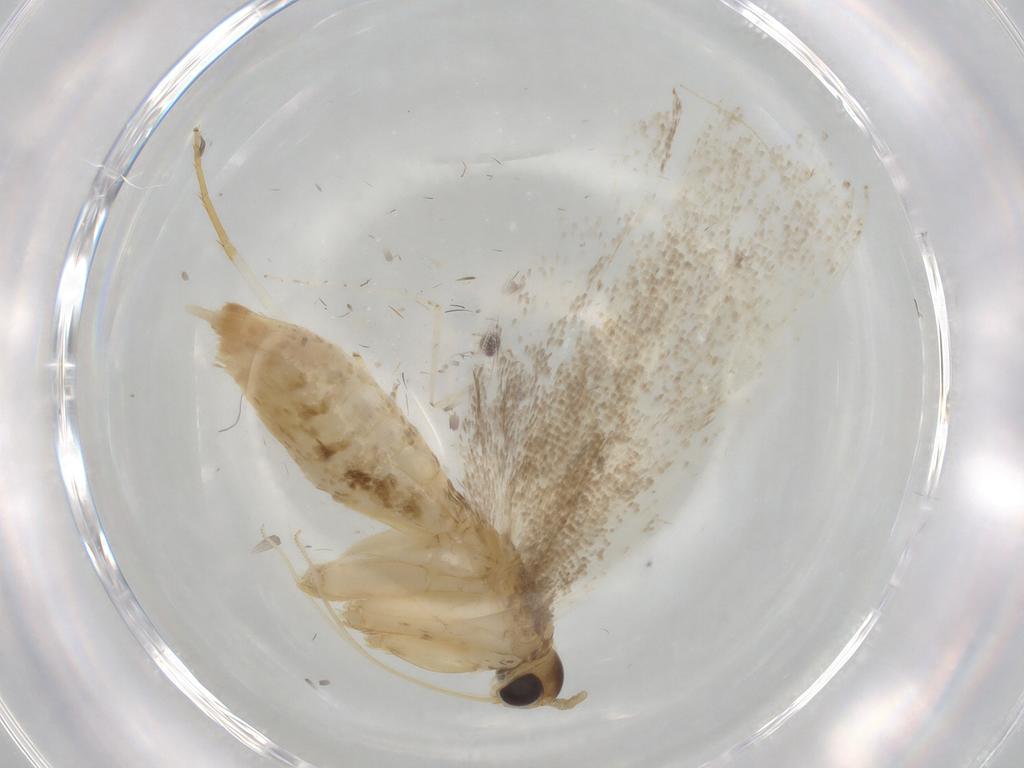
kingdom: Animalia
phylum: Arthropoda
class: Insecta
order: Lepidoptera
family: Lecithoceridae
